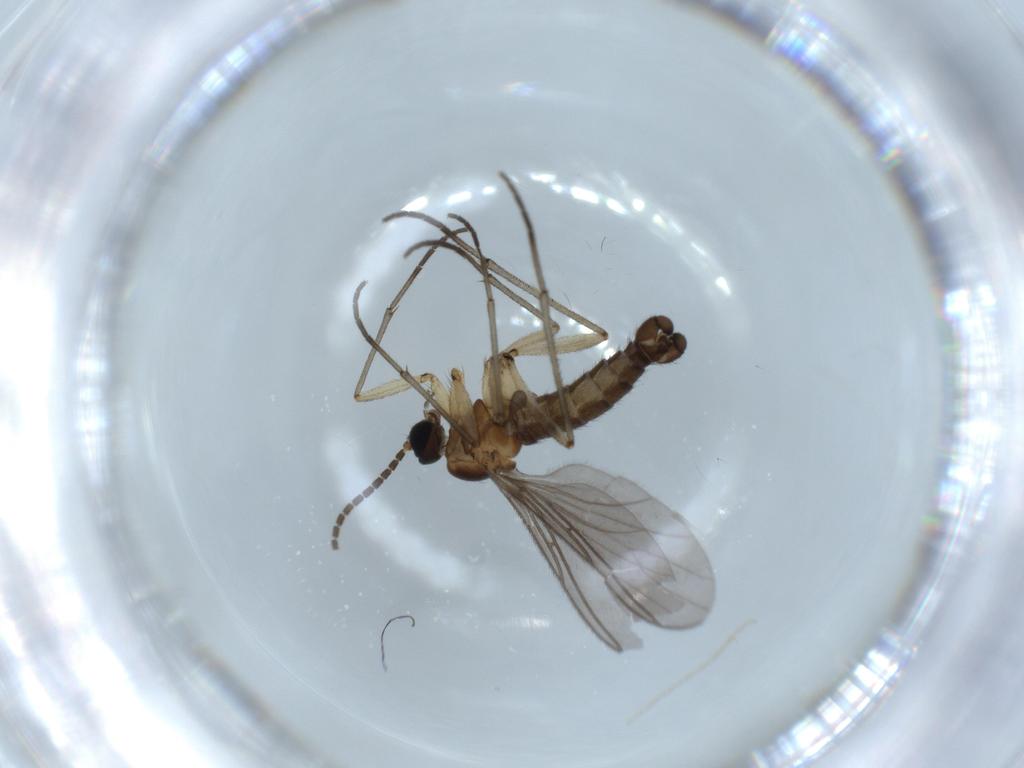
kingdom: Animalia
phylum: Arthropoda
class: Insecta
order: Diptera
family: Sciaridae
